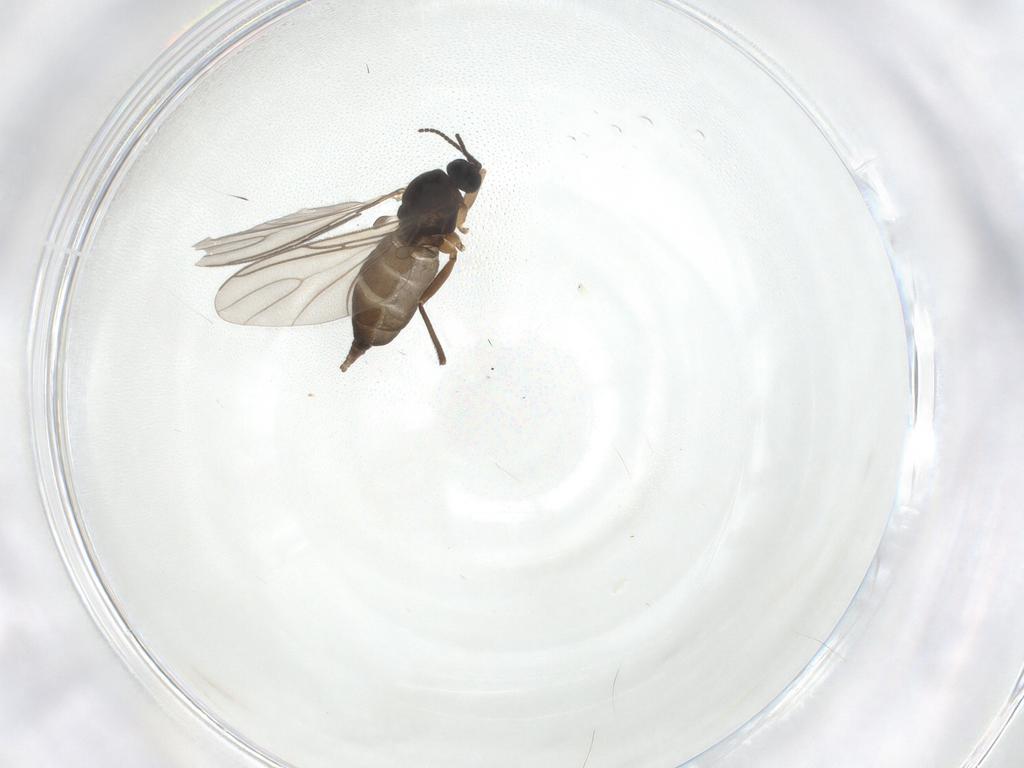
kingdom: Animalia
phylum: Arthropoda
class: Insecta
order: Diptera
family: Sciaridae
